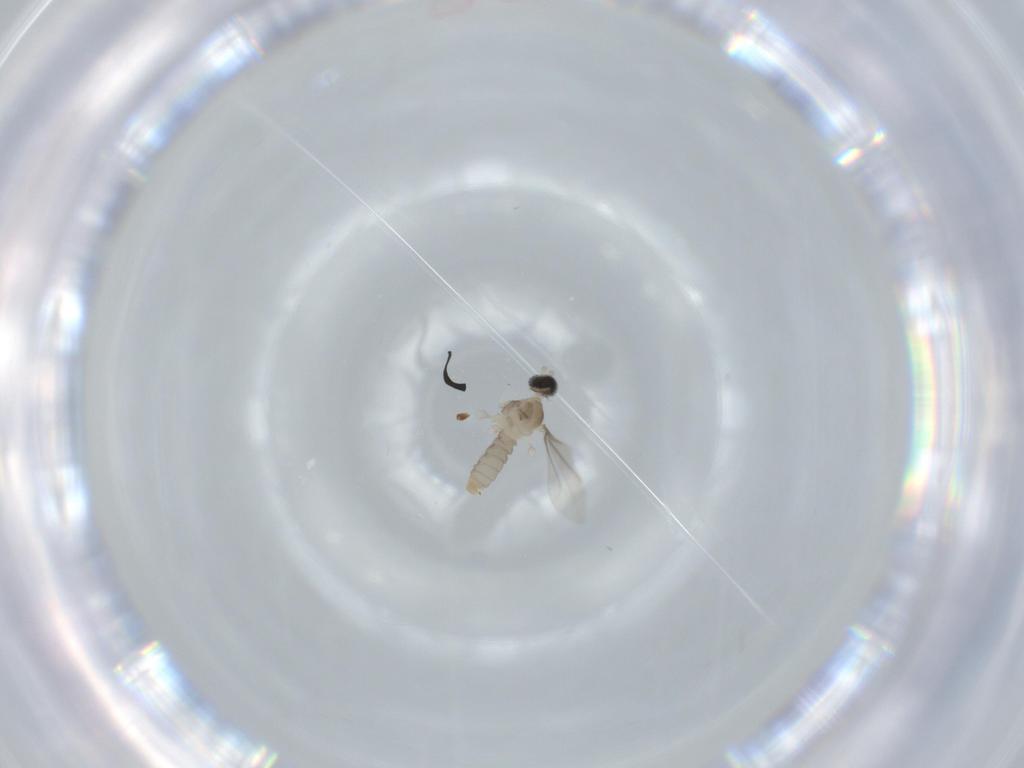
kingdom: Animalia
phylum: Arthropoda
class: Insecta
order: Diptera
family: Cecidomyiidae
